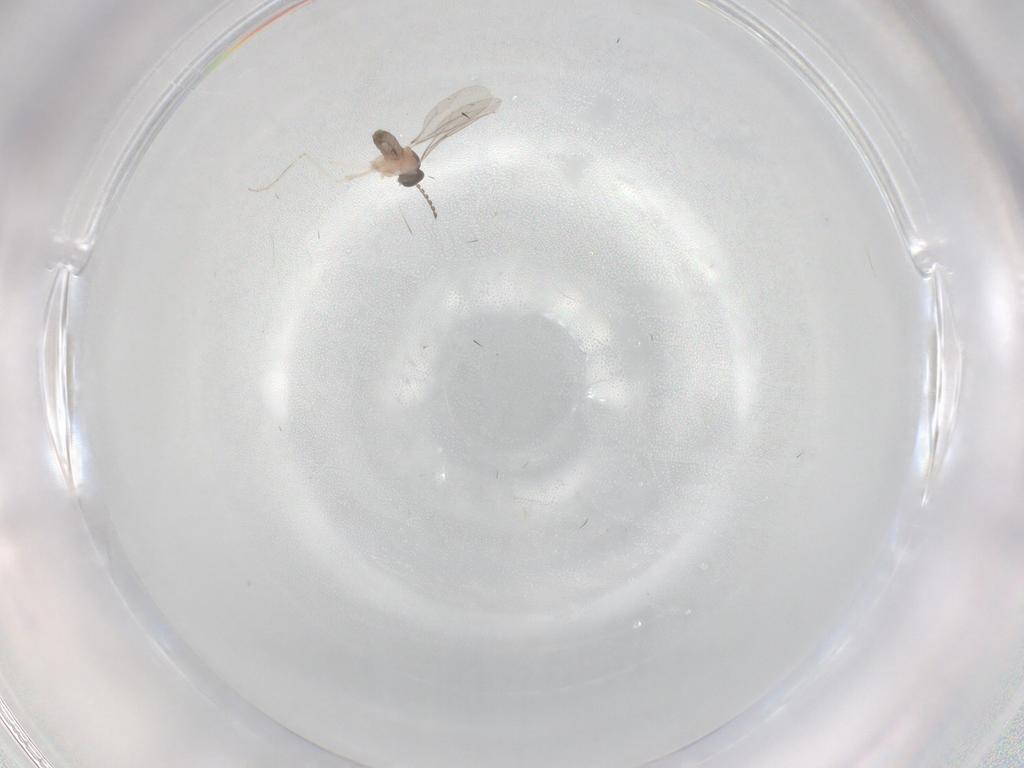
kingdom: Animalia
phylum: Arthropoda
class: Insecta
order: Diptera
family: Cecidomyiidae
